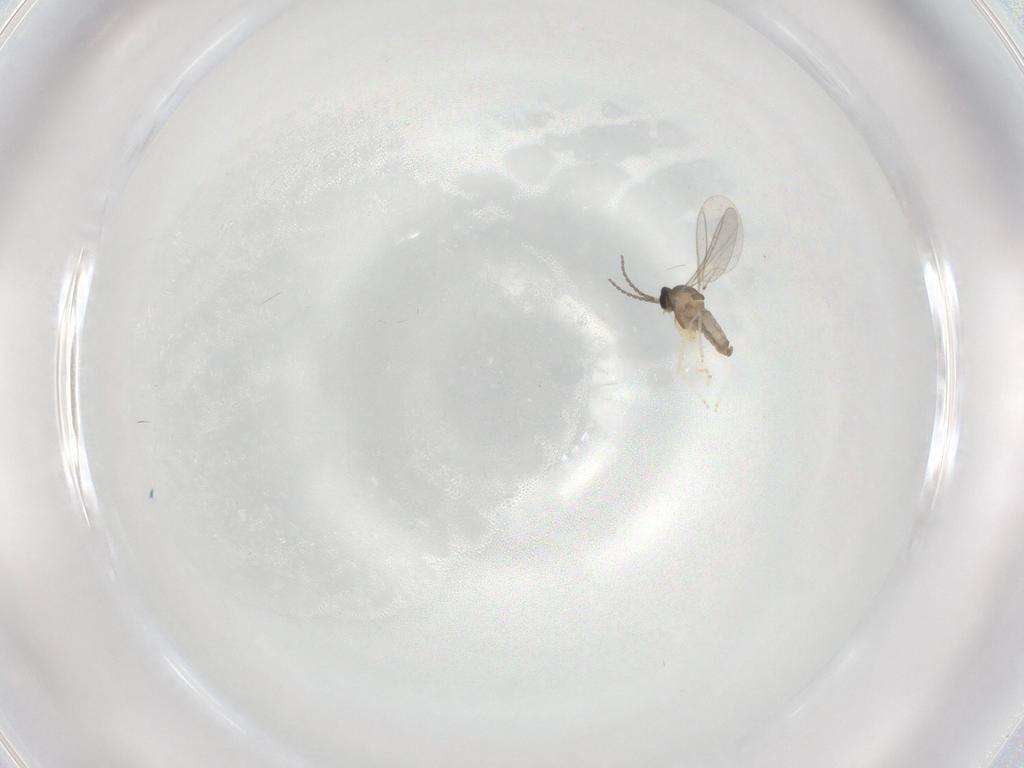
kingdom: Animalia
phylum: Arthropoda
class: Insecta
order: Diptera
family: Cecidomyiidae
